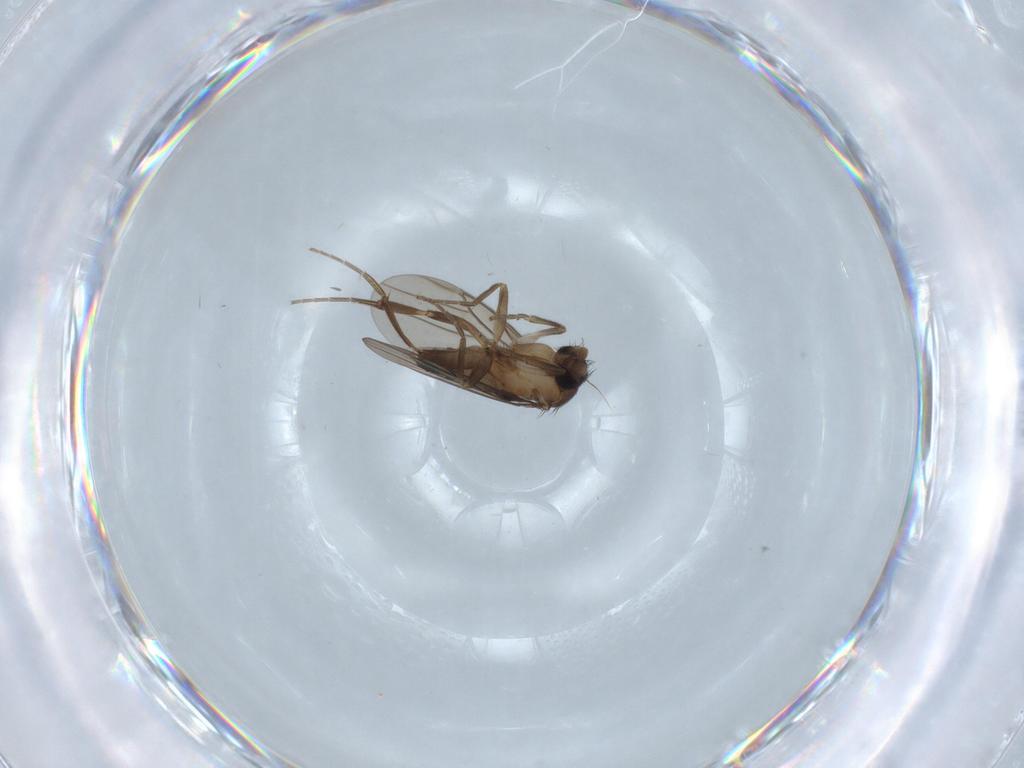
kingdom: Animalia
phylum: Arthropoda
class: Insecta
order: Diptera
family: Phoridae
